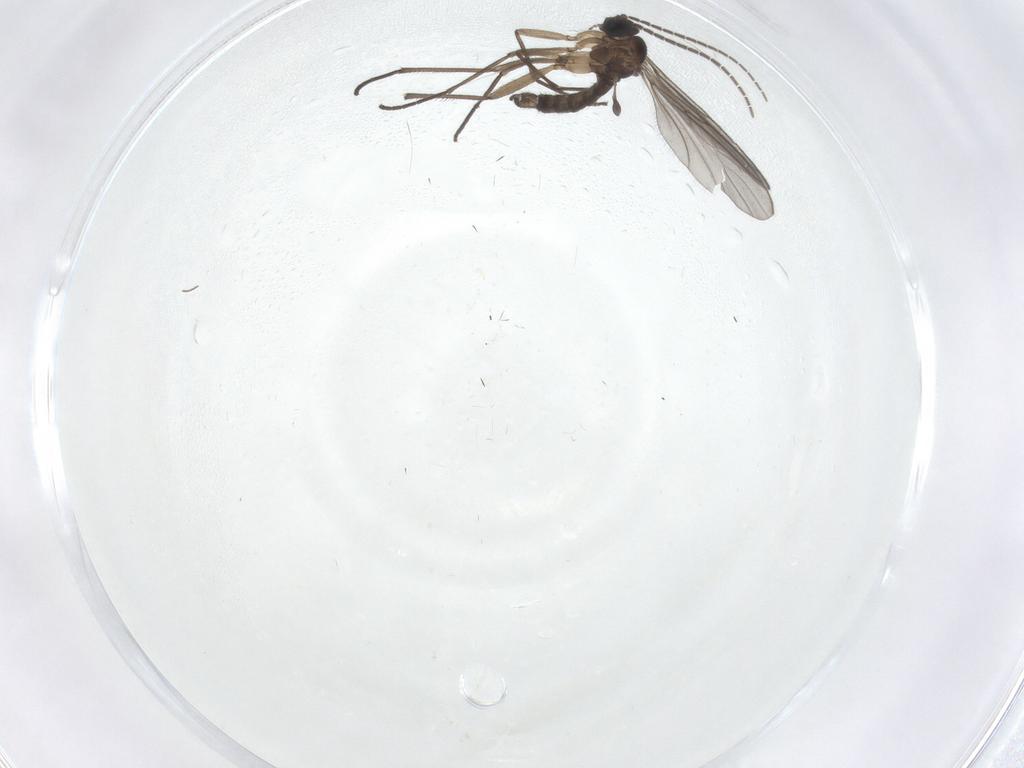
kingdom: Animalia
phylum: Arthropoda
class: Insecta
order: Diptera
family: Sciaridae
